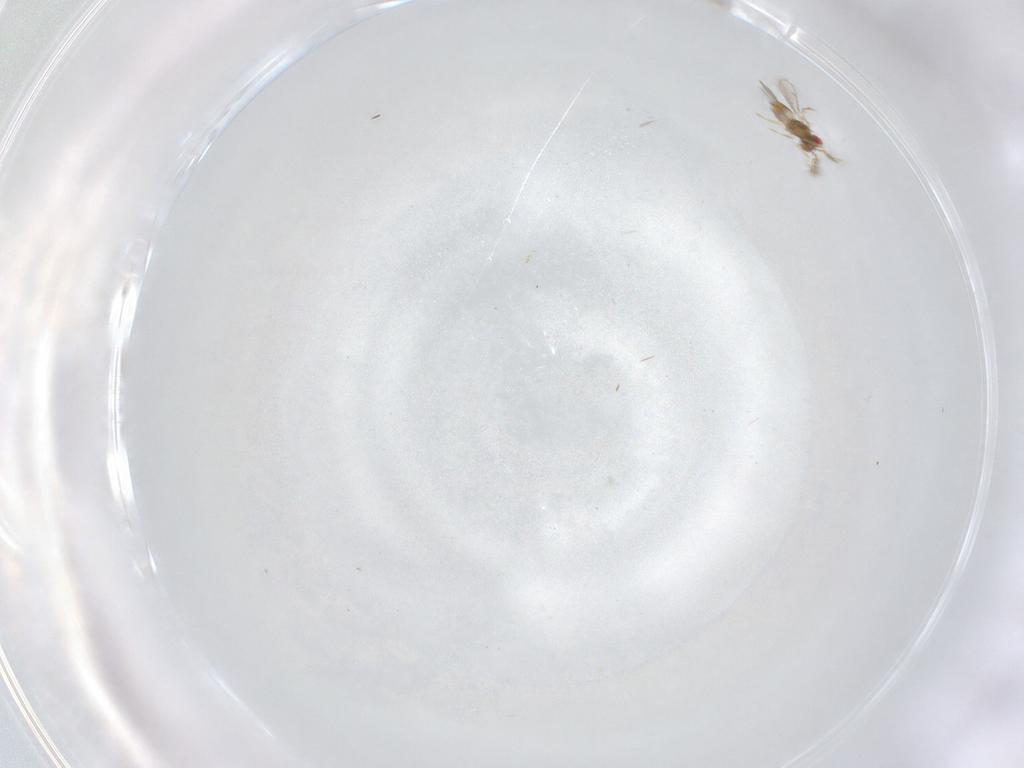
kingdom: Animalia
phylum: Arthropoda
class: Insecta
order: Hymenoptera
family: Eulophidae
